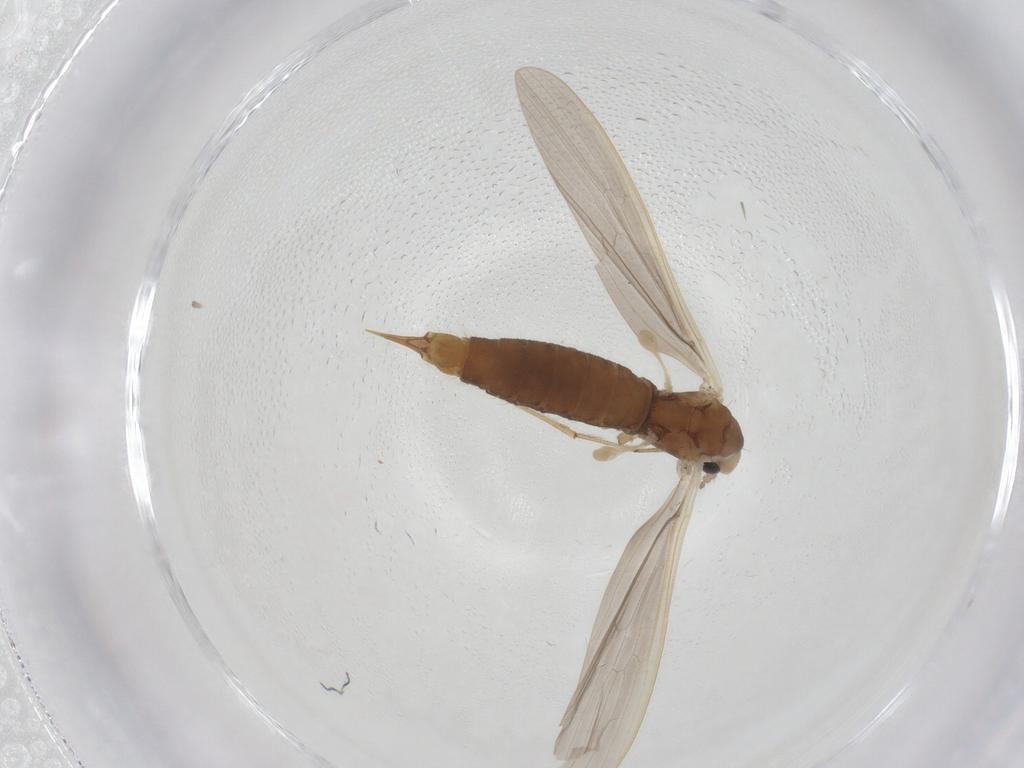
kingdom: Animalia
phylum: Arthropoda
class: Insecta
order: Diptera
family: Limoniidae
